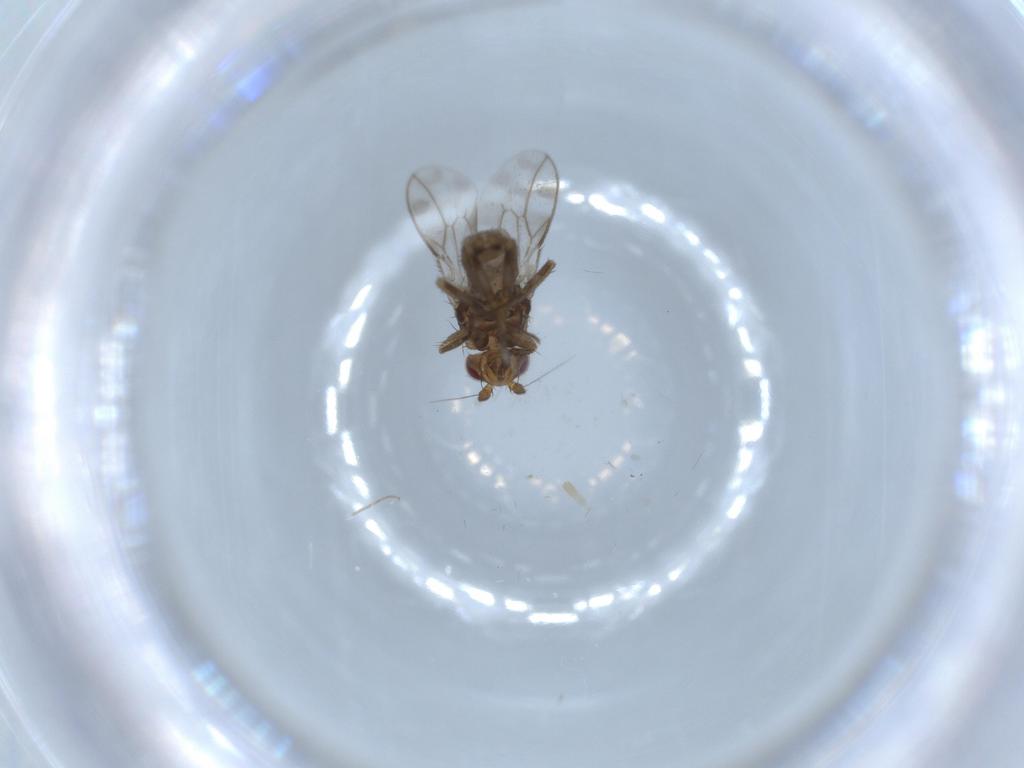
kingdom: Animalia
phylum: Arthropoda
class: Insecta
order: Diptera
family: Sphaeroceridae
